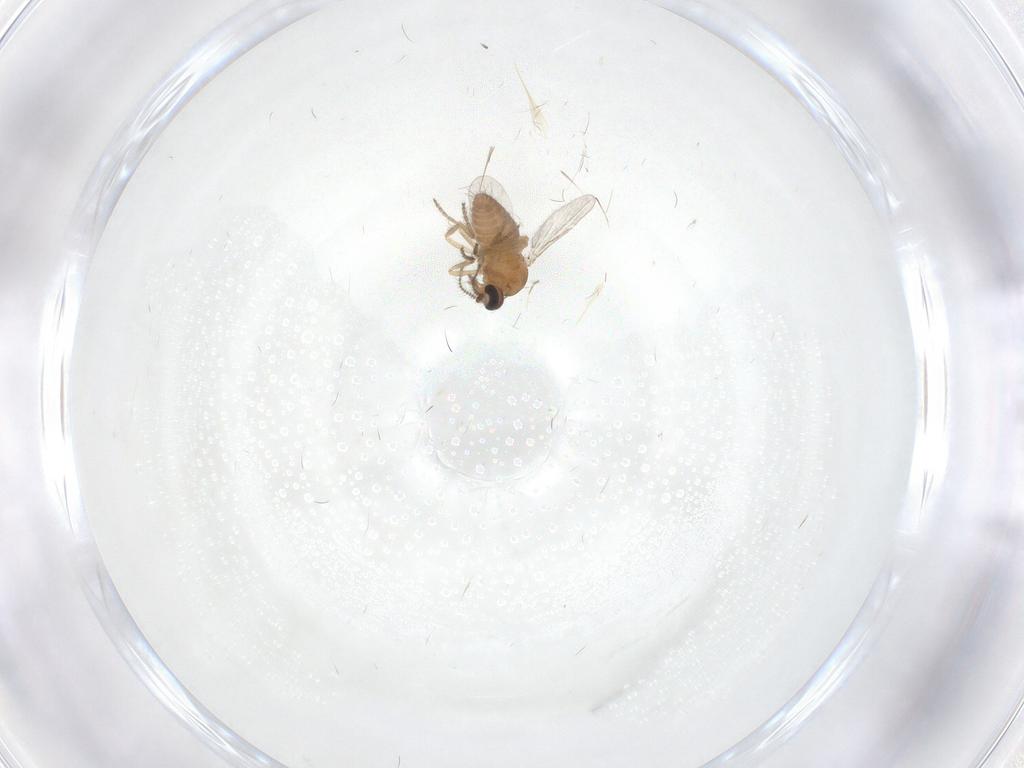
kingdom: Animalia
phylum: Arthropoda
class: Insecta
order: Diptera
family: Ceratopogonidae
